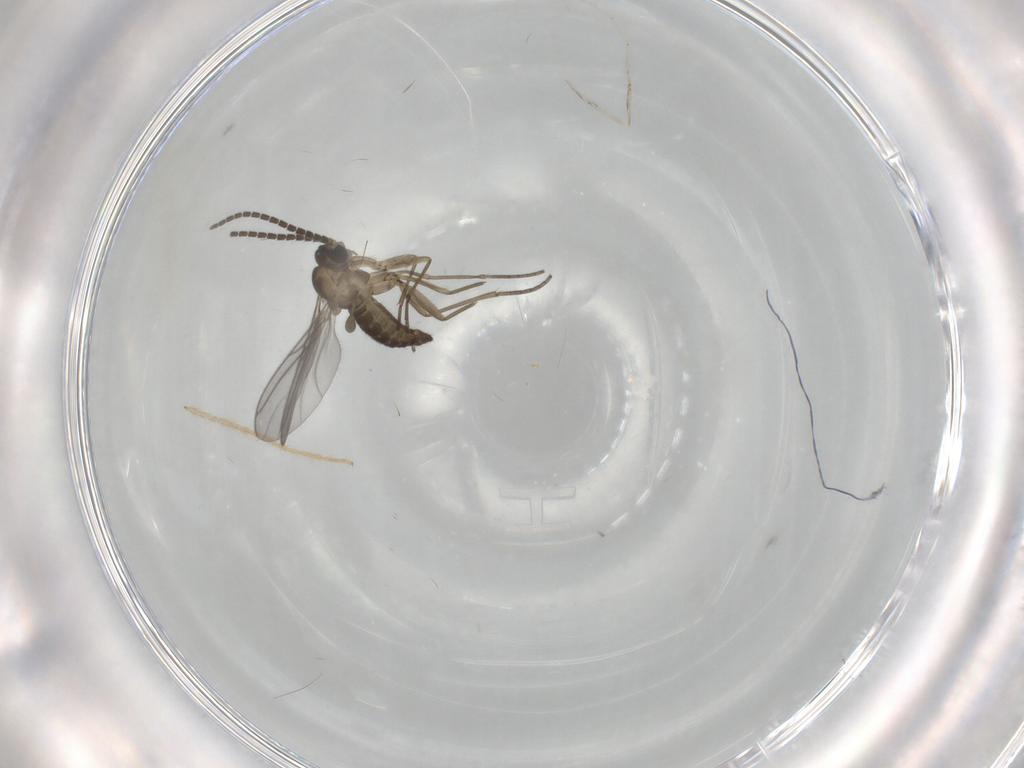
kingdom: Animalia
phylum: Arthropoda
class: Insecta
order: Diptera
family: Sciaridae
